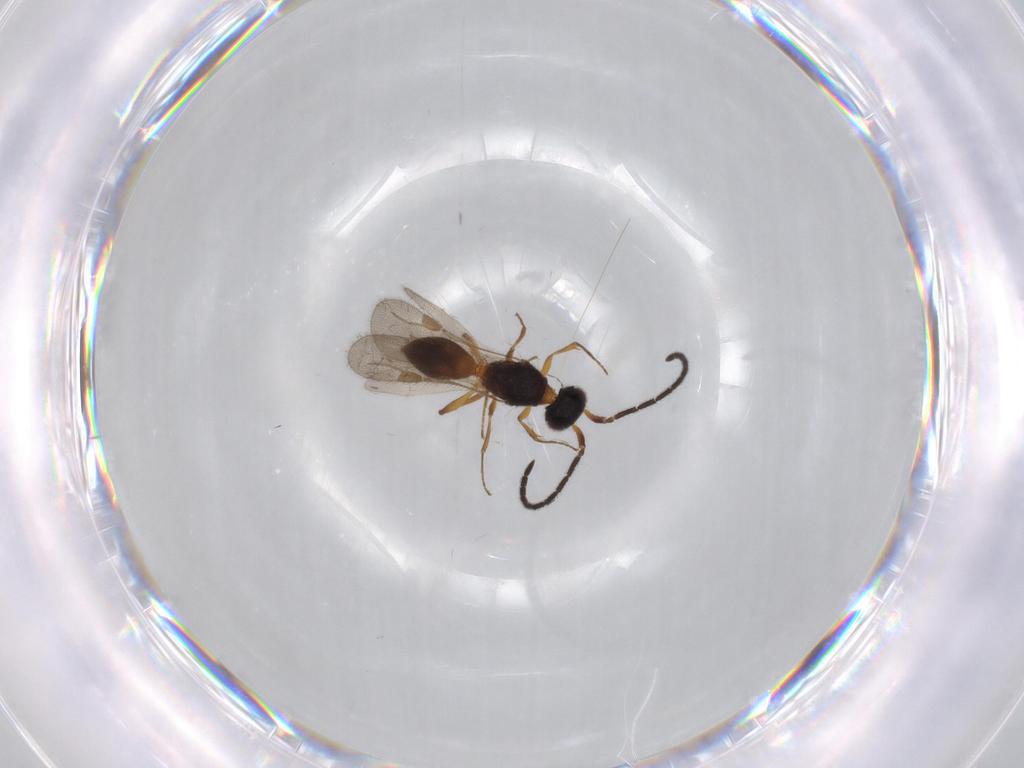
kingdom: Animalia
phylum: Arthropoda
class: Insecta
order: Hymenoptera
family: Megaspilidae
